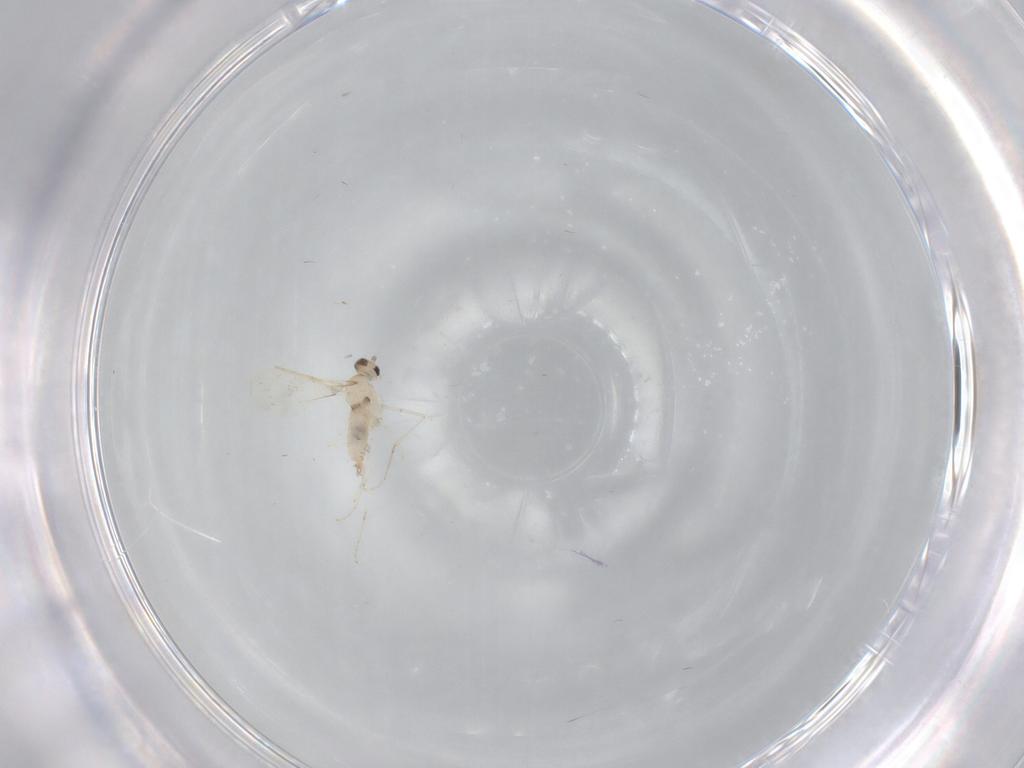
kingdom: Animalia
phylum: Arthropoda
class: Insecta
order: Diptera
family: Cecidomyiidae
